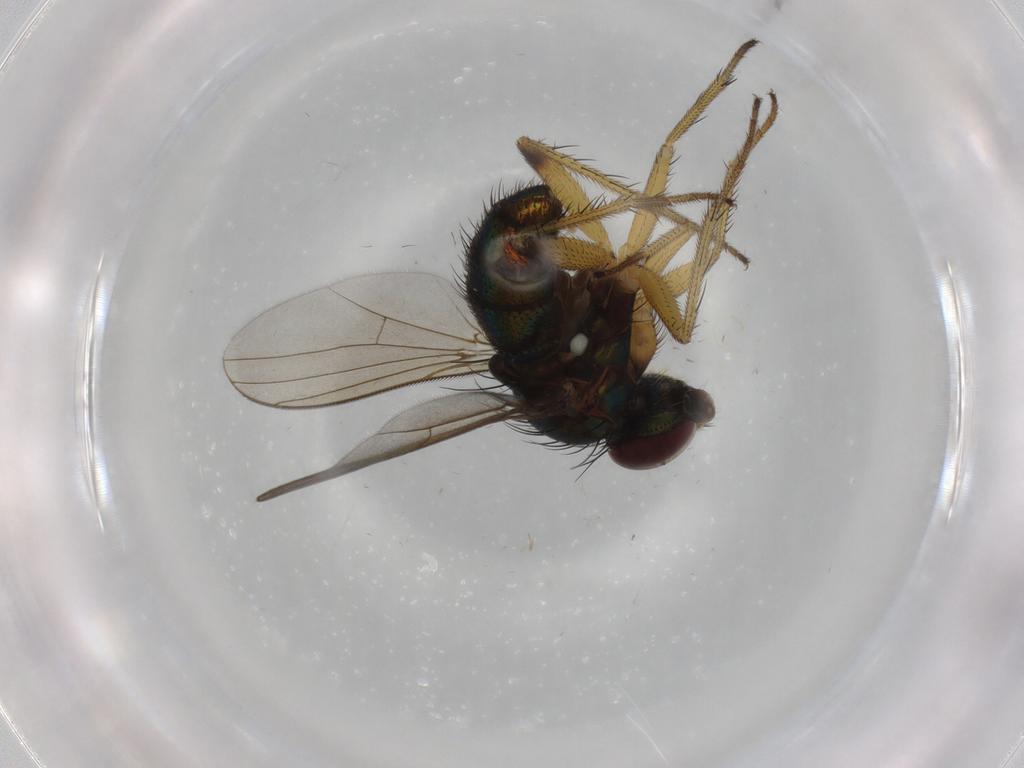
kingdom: Animalia
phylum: Arthropoda
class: Insecta
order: Diptera
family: Dolichopodidae
